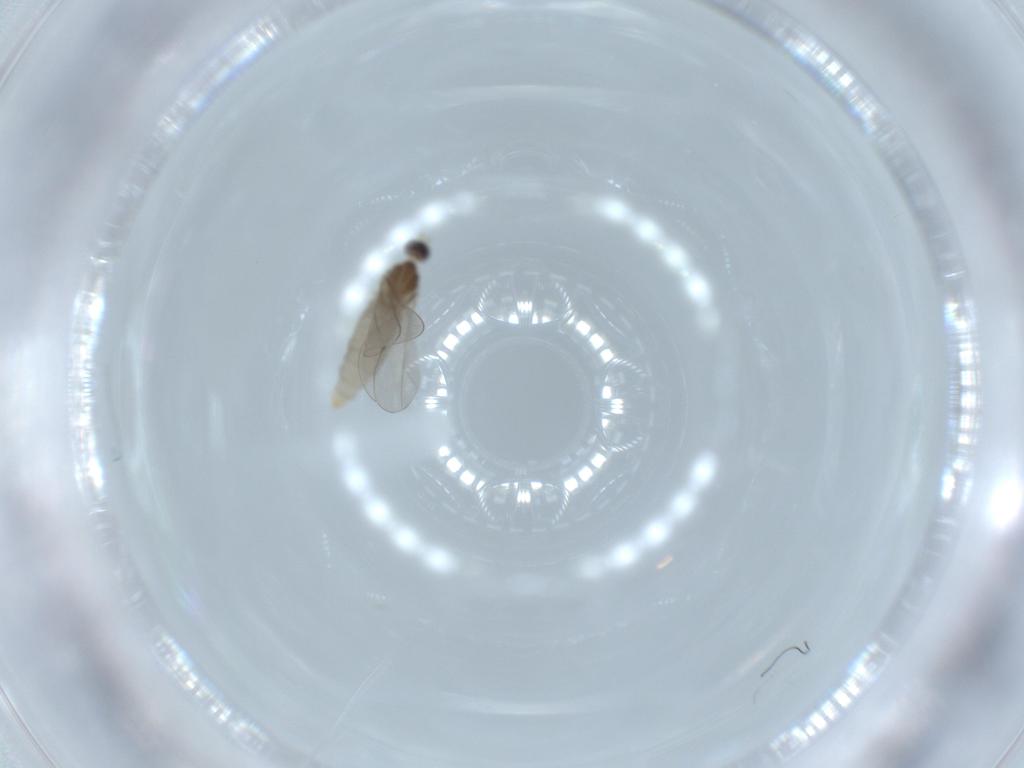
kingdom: Animalia
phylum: Arthropoda
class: Insecta
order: Diptera
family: Cecidomyiidae
